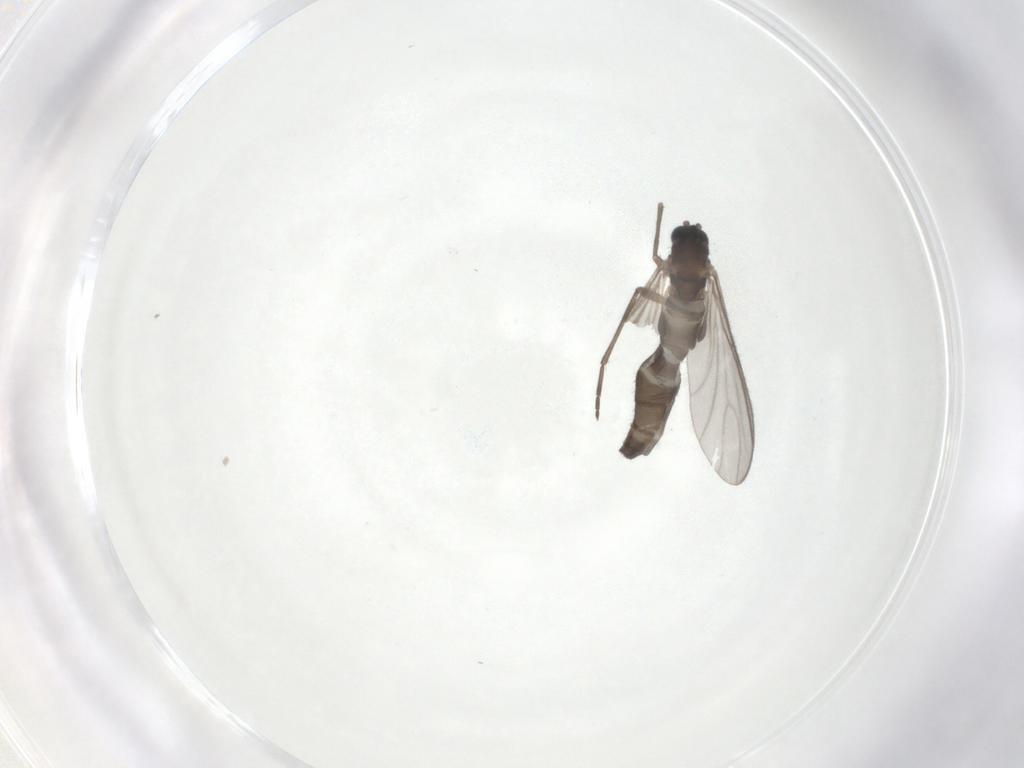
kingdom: Animalia
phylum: Arthropoda
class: Insecta
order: Diptera
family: Sciaridae
